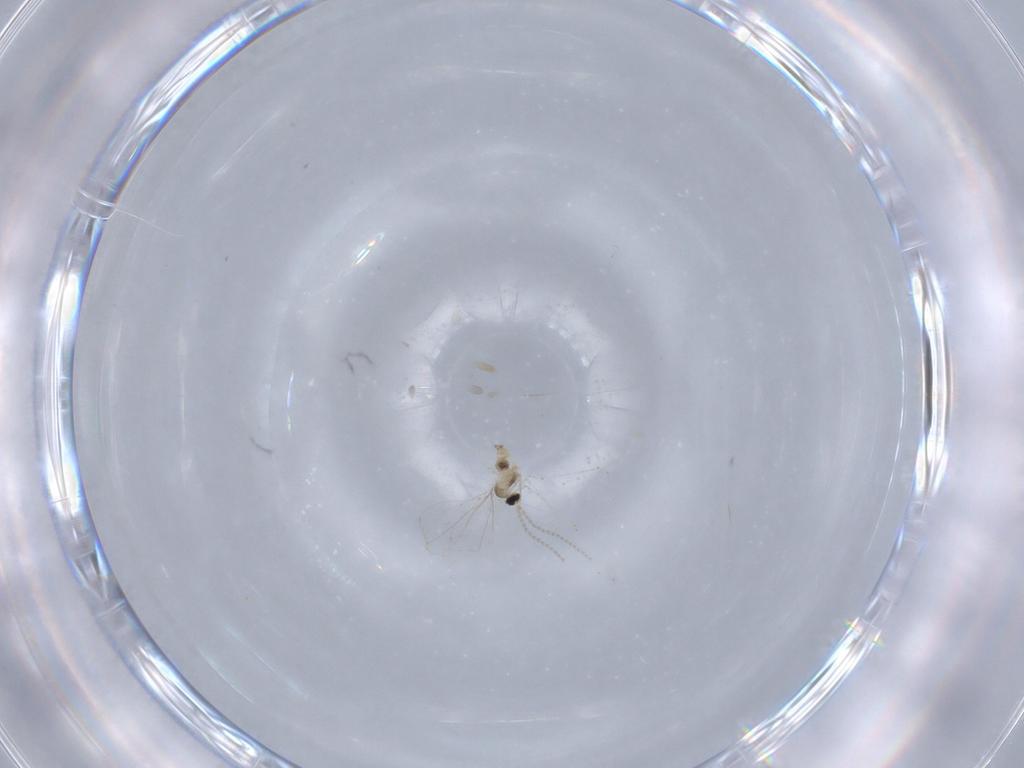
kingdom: Animalia
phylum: Arthropoda
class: Insecta
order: Diptera
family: Cecidomyiidae
